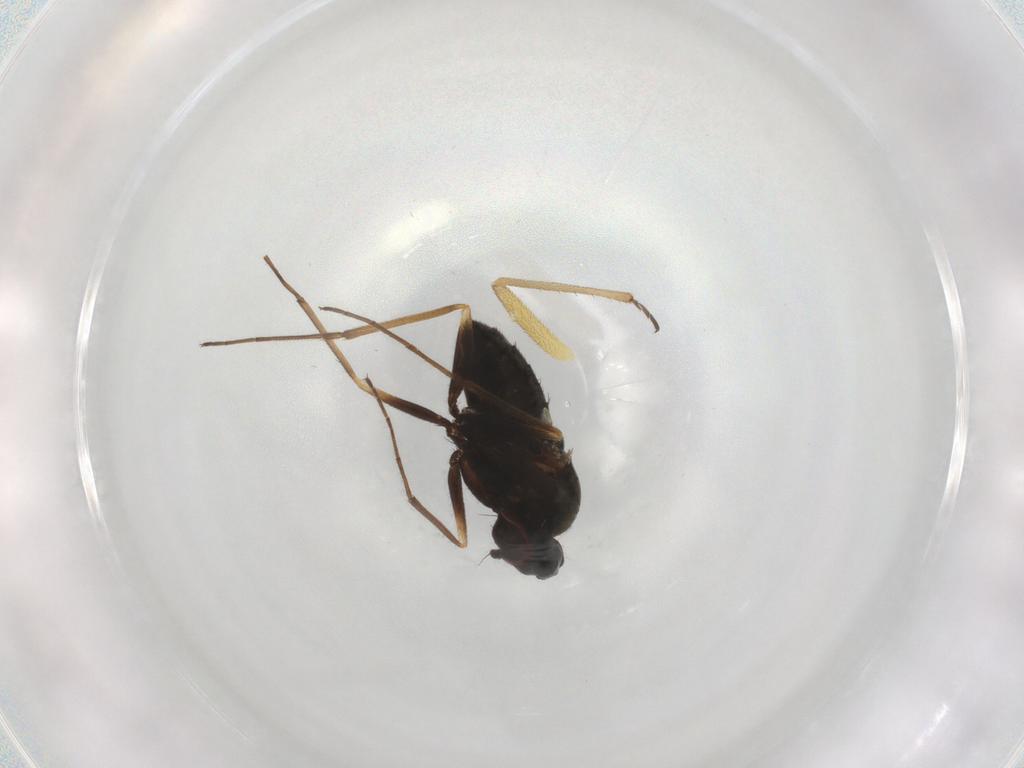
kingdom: Animalia
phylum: Arthropoda
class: Insecta
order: Diptera
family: Dolichopodidae
